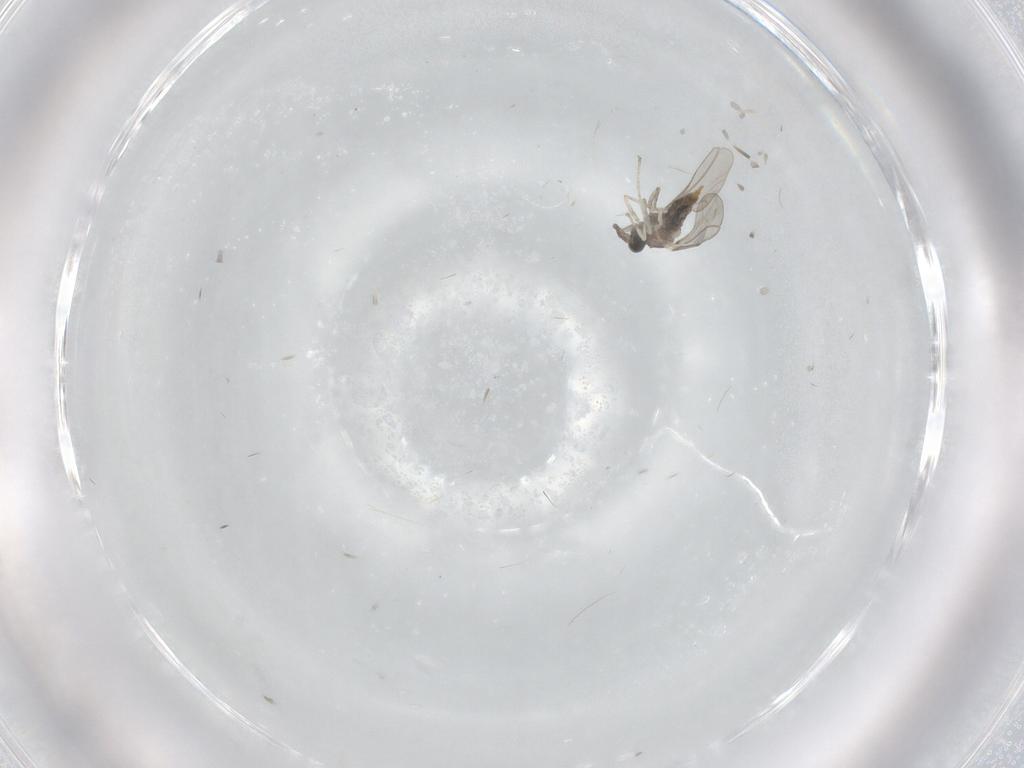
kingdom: Animalia
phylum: Arthropoda
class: Insecta
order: Diptera
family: Cecidomyiidae
